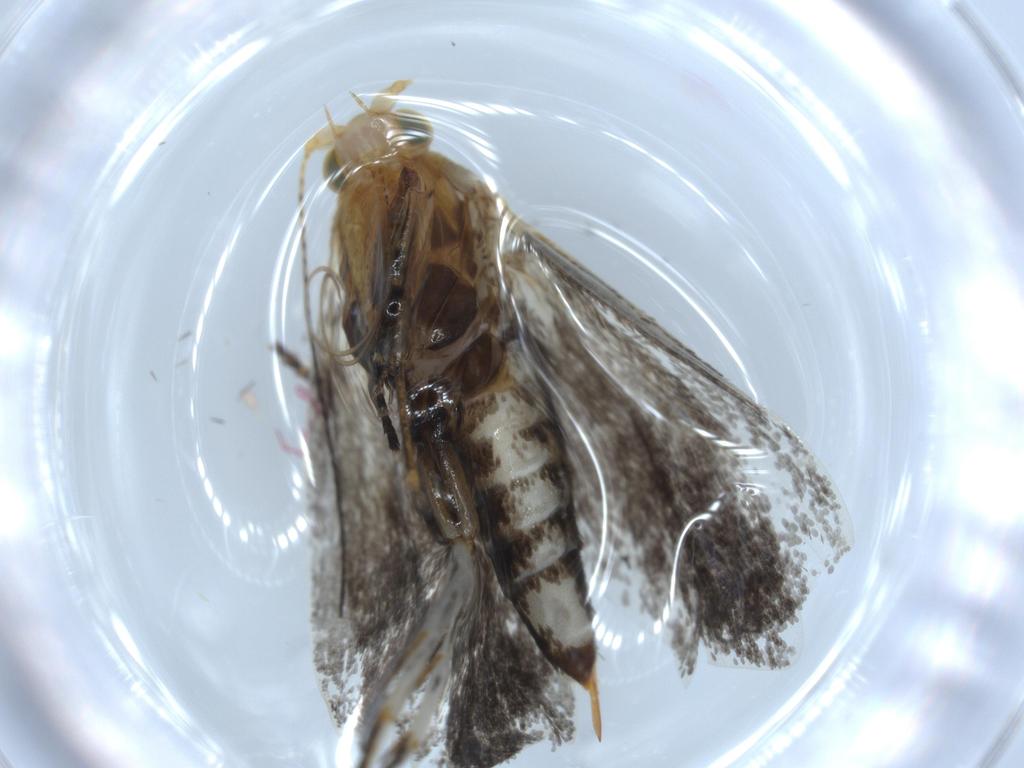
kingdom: Animalia
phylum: Arthropoda
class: Insecta
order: Lepidoptera
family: Adelidae
